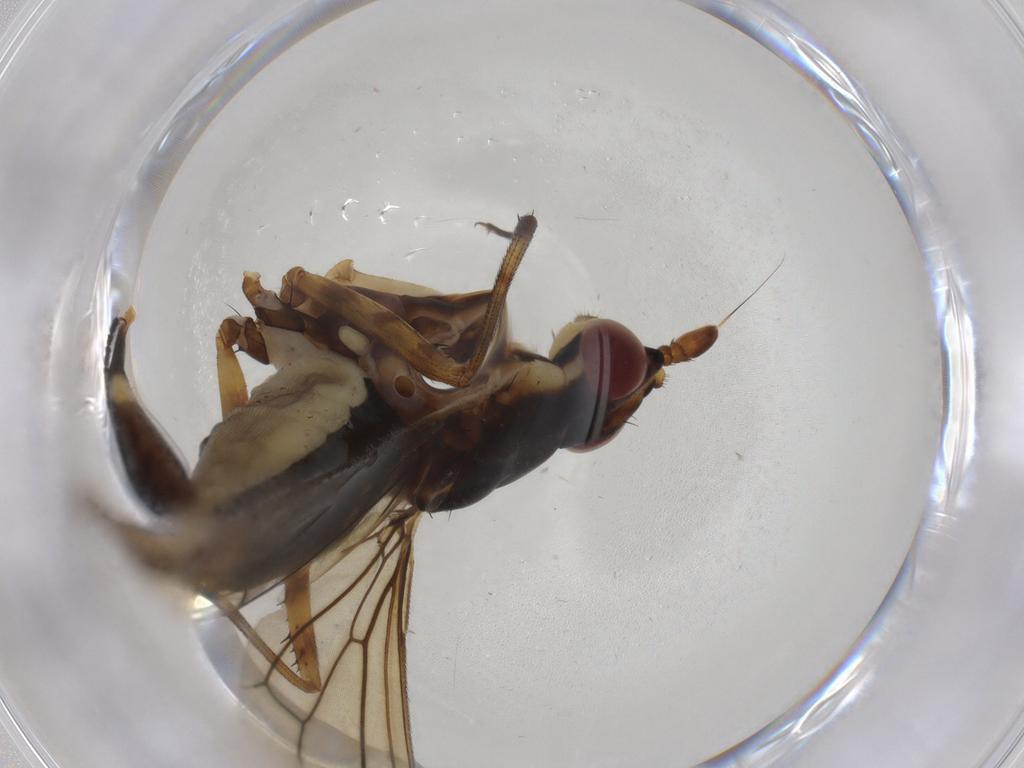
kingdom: Animalia
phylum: Arthropoda
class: Insecta
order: Diptera
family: Neriidae
